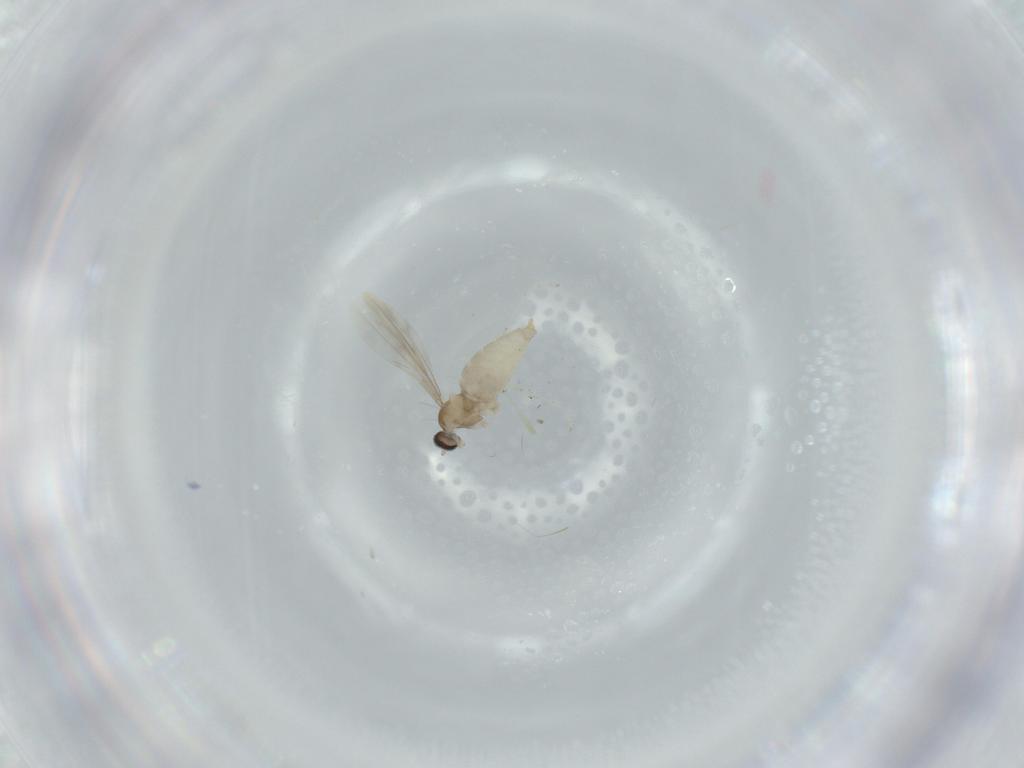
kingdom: Animalia
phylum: Arthropoda
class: Insecta
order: Diptera
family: Cecidomyiidae
